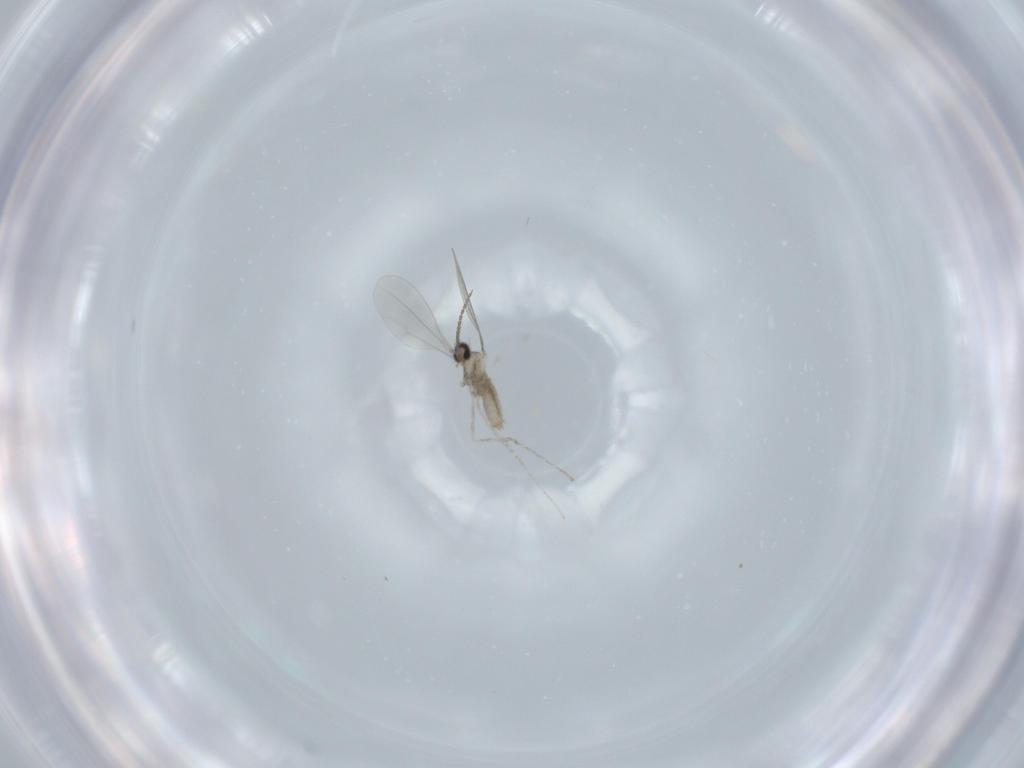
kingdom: Animalia
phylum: Arthropoda
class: Insecta
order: Diptera
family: Cecidomyiidae
